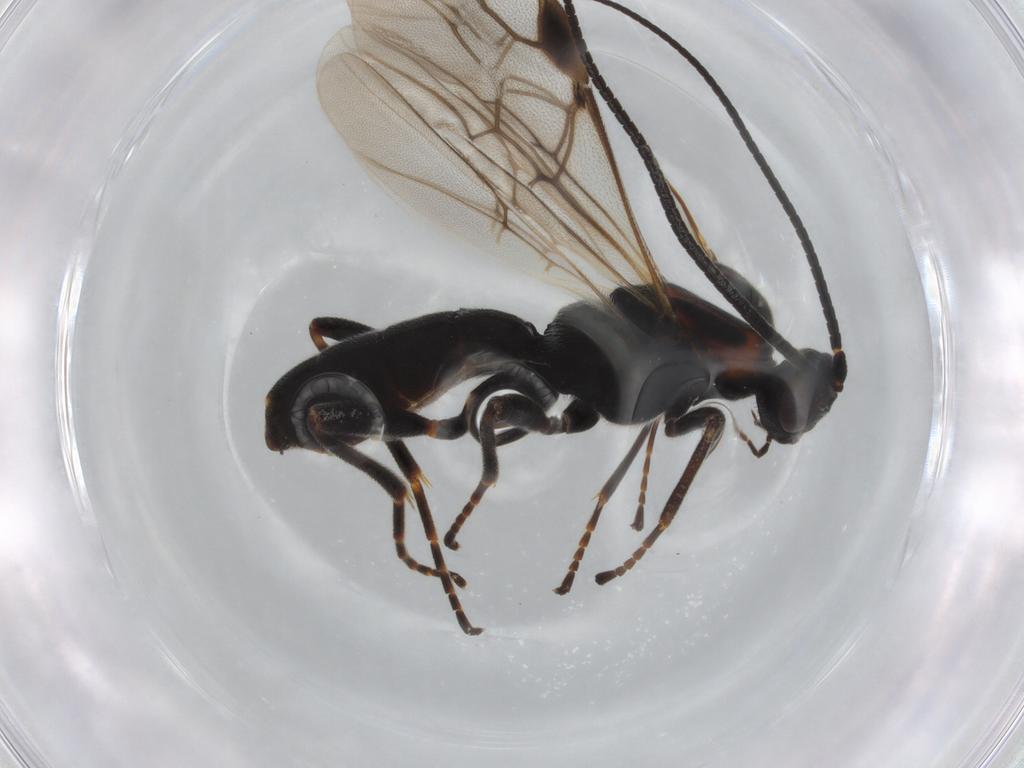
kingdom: Animalia
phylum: Arthropoda
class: Insecta
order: Hymenoptera
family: Braconidae
